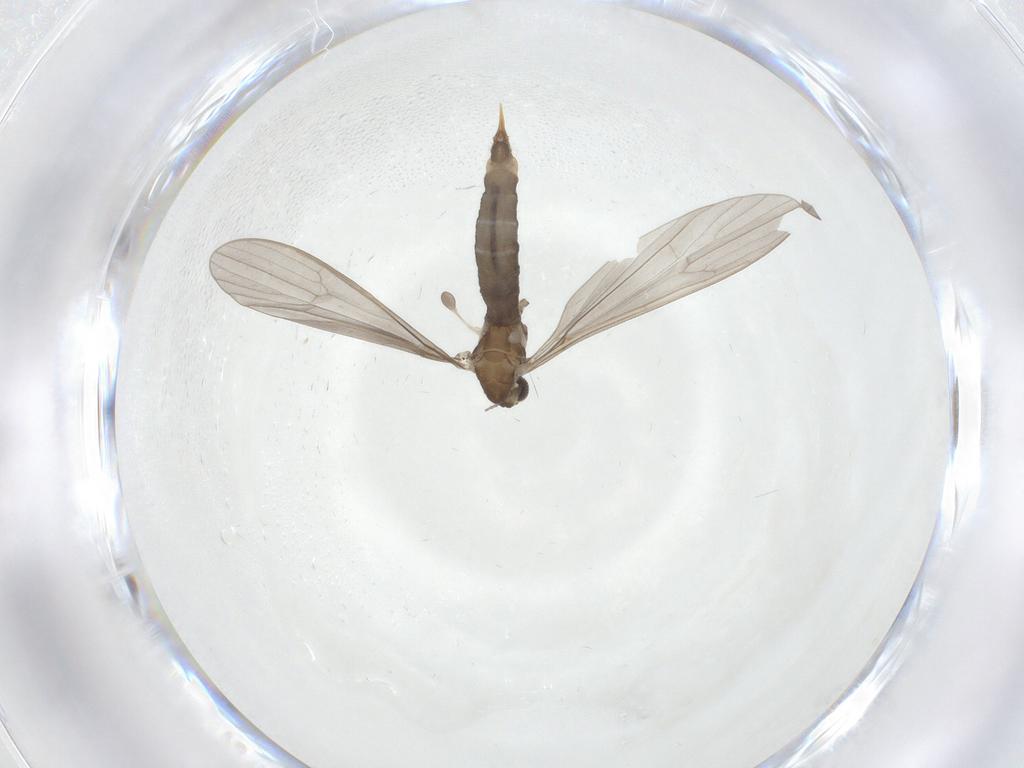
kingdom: Animalia
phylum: Arthropoda
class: Insecta
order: Diptera
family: Limoniidae
